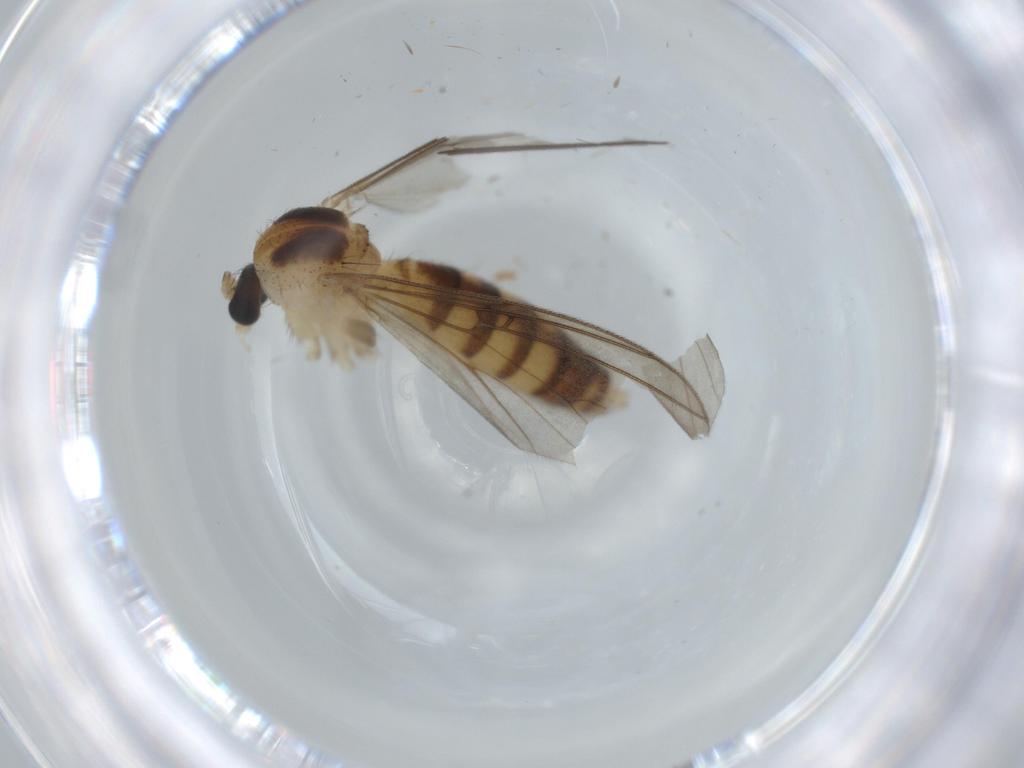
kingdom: Animalia
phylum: Arthropoda
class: Insecta
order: Diptera
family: Mycetophilidae
